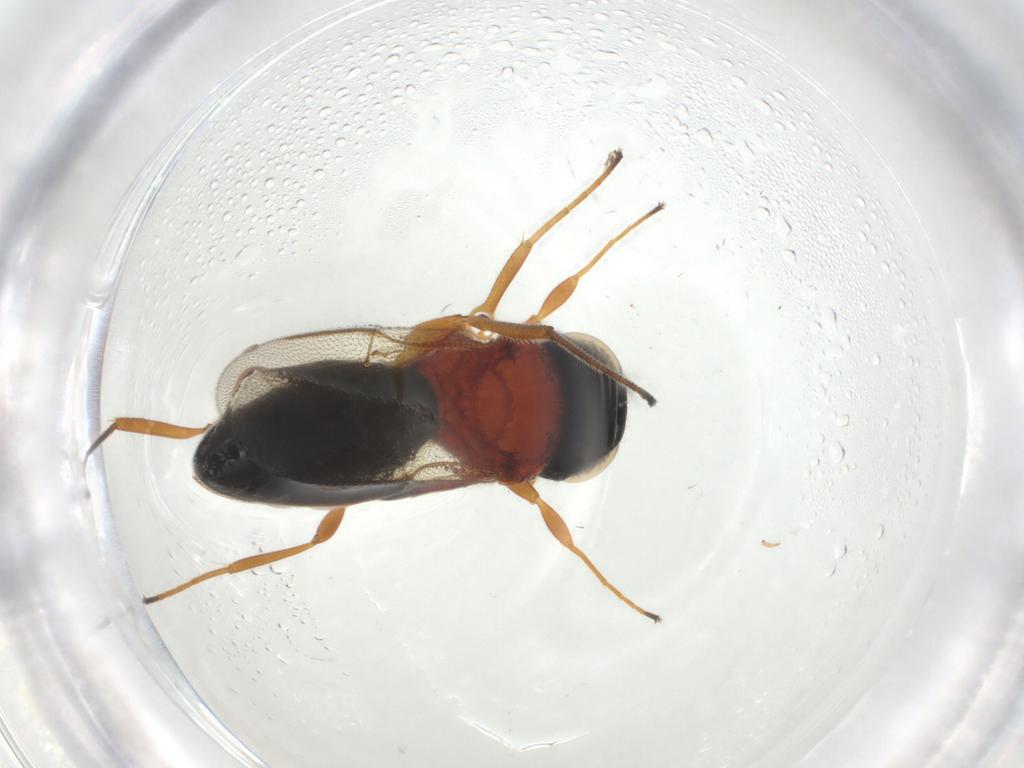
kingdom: Animalia
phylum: Arthropoda
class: Insecta
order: Hymenoptera
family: Scelionidae
